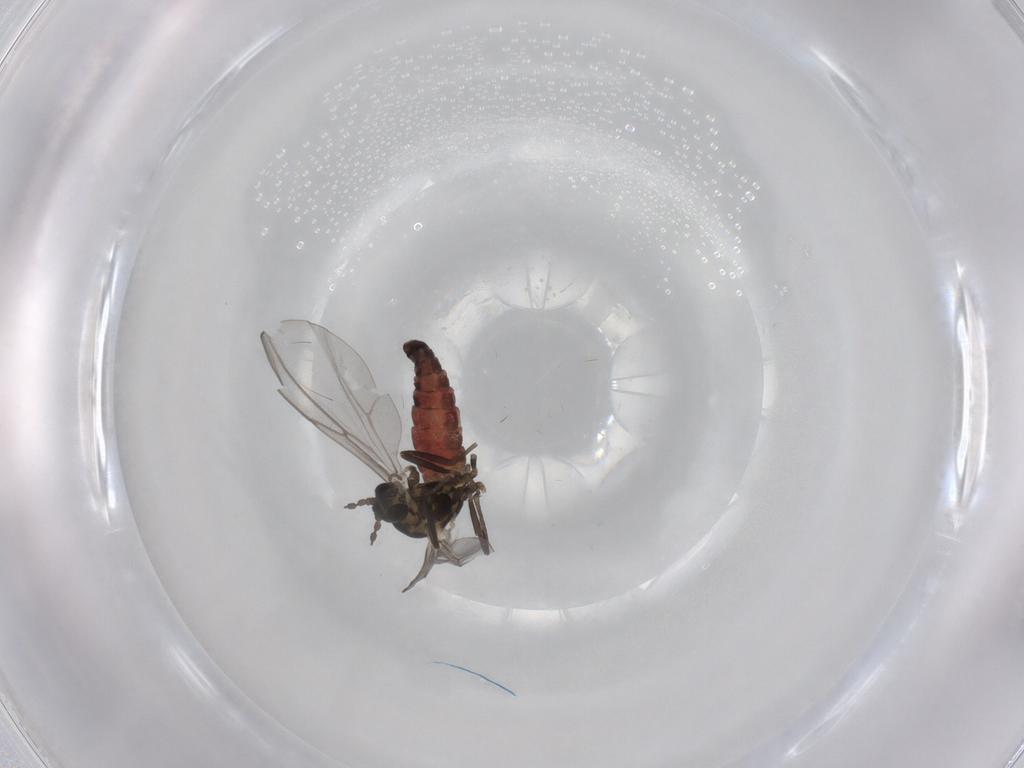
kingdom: Animalia
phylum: Arthropoda
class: Insecta
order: Diptera
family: Cecidomyiidae
